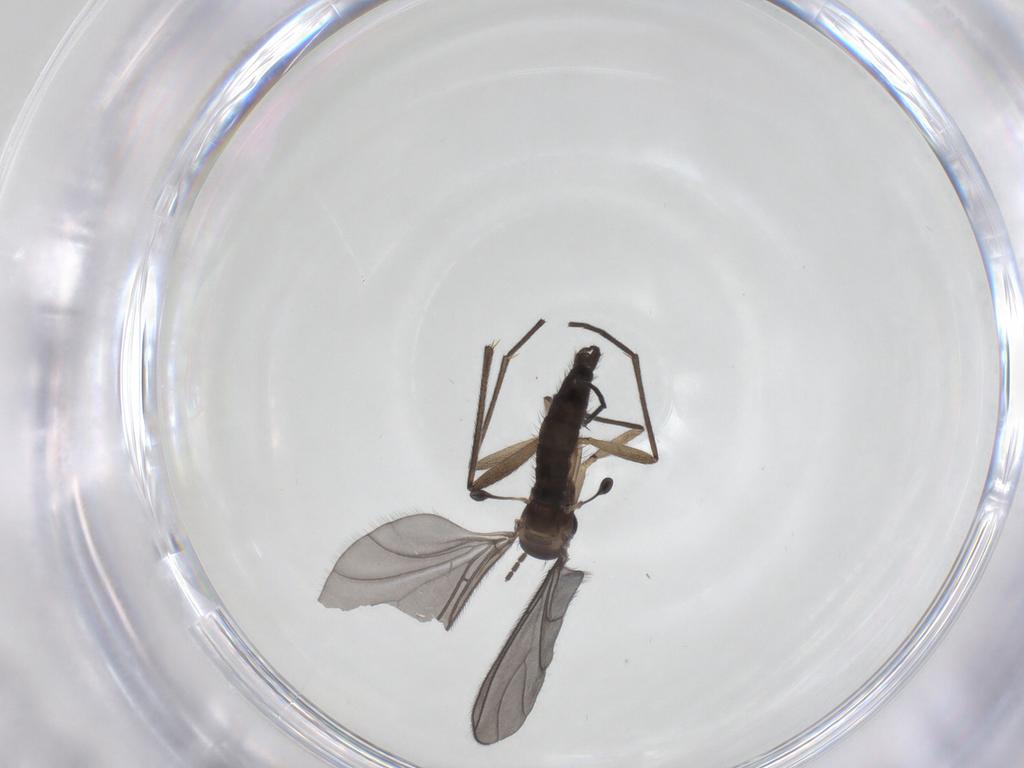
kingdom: Animalia
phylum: Arthropoda
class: Insecta
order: Diptera
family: Sciaridae
